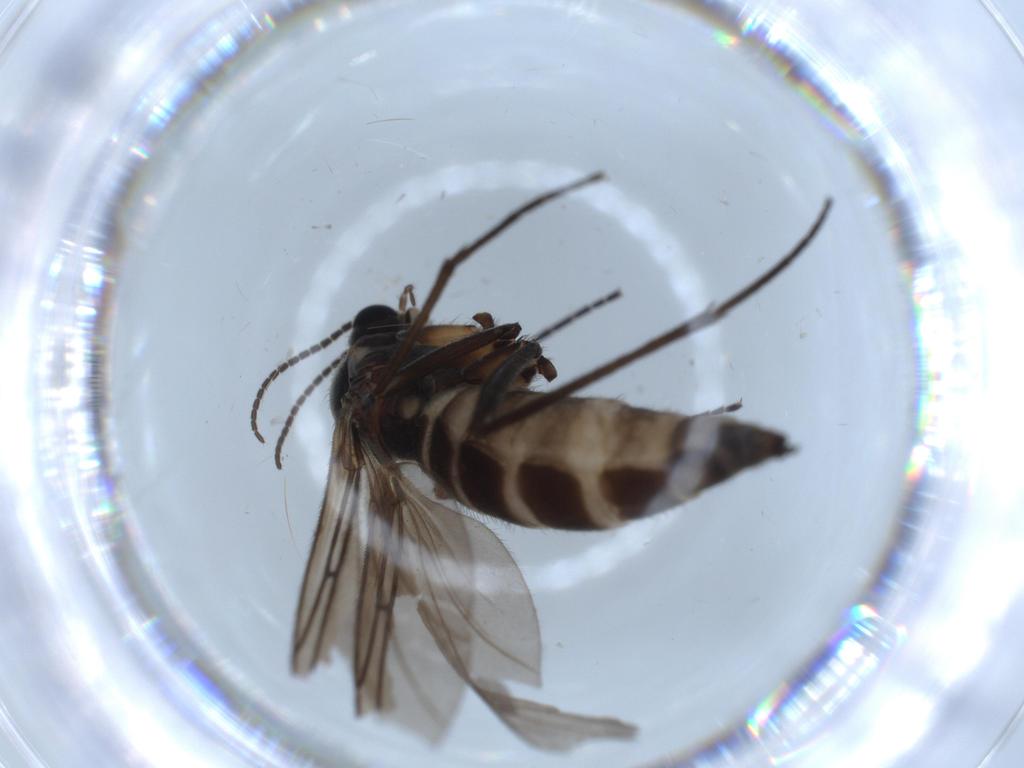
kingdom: Animalia
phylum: Arthropoda
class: Insecta
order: Diptera
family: Sciaridae
